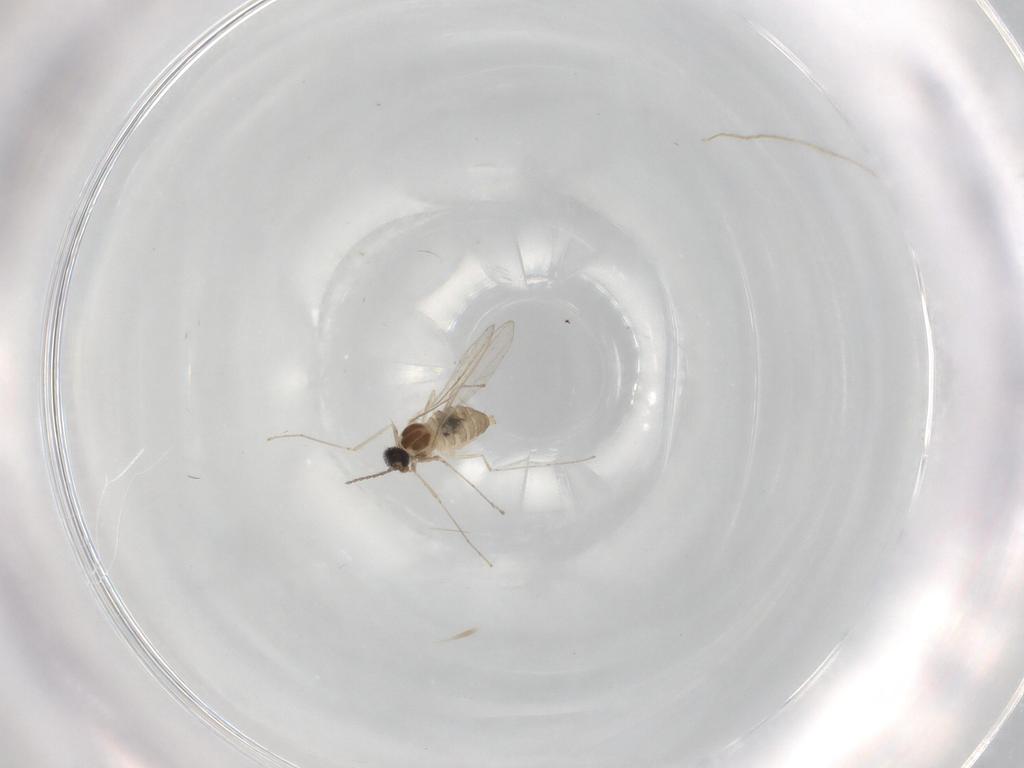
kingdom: Animalia
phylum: Arthropoda
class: Insecta
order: Diptera
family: Cecidomyiidae
